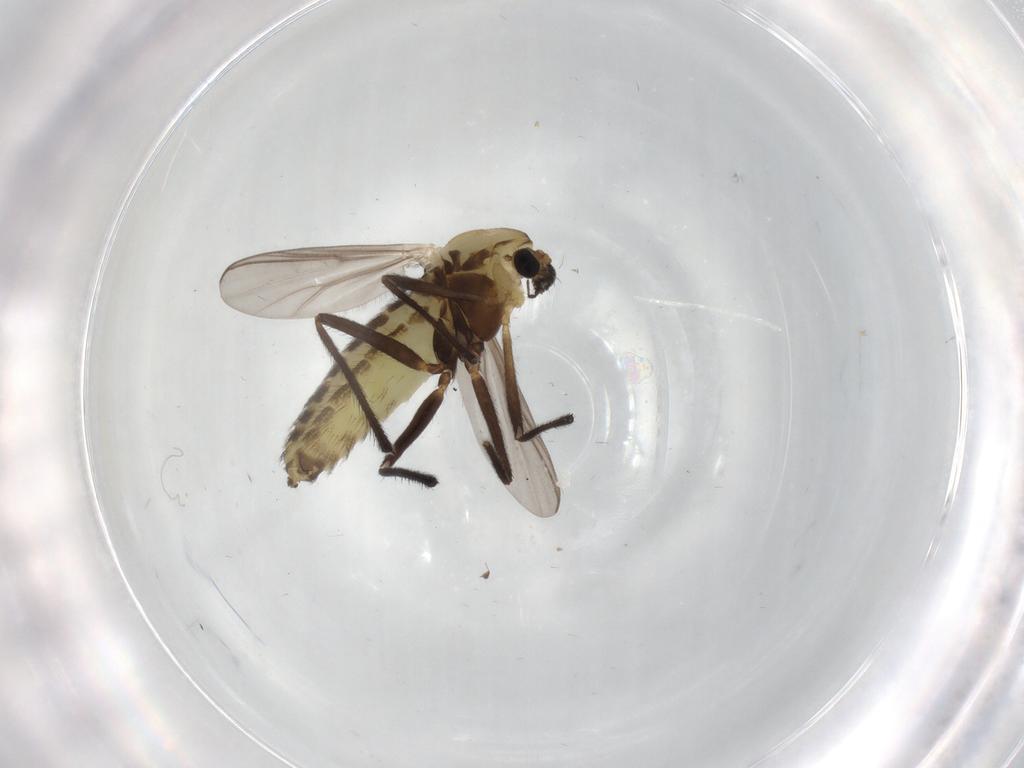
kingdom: Animalia
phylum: Arthropoda
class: Insecta
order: Diptera
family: Chironomidae
